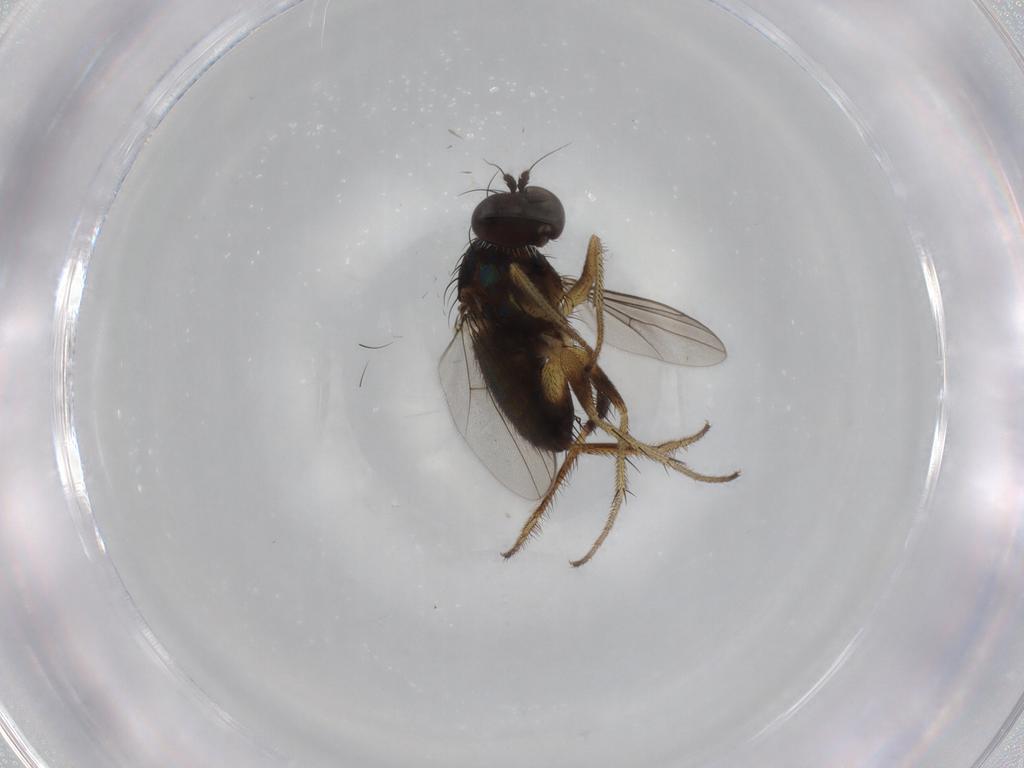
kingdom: Animalia
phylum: Arthropoda
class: Insecta
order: Diptera
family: Dolichopodidae
